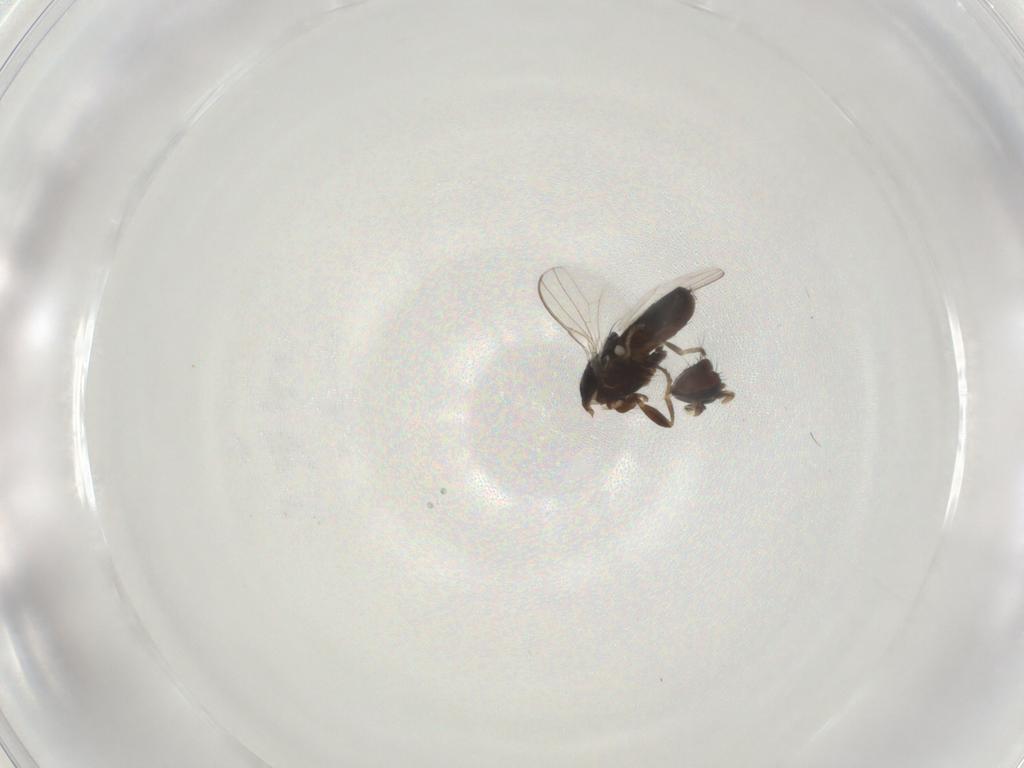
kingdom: Animalia
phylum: Arthropoda
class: Insecta
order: Diptera
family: Milichiidae
